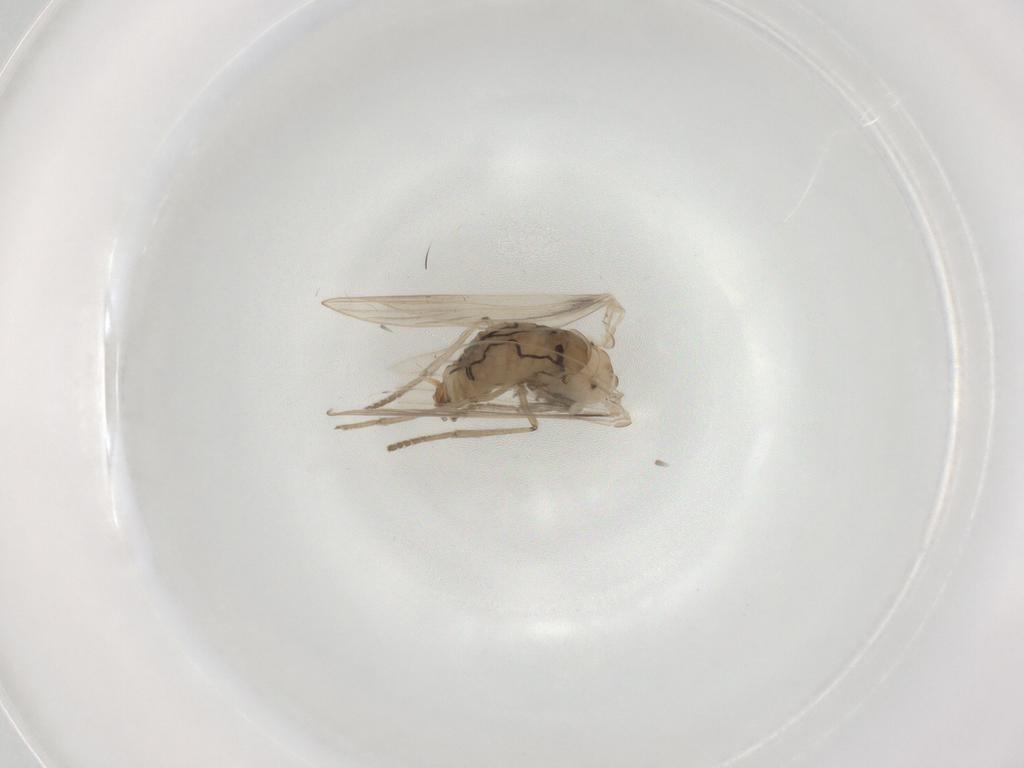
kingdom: Animalia
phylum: Arthropoda
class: Insecta
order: Diptera
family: Psychodidae
